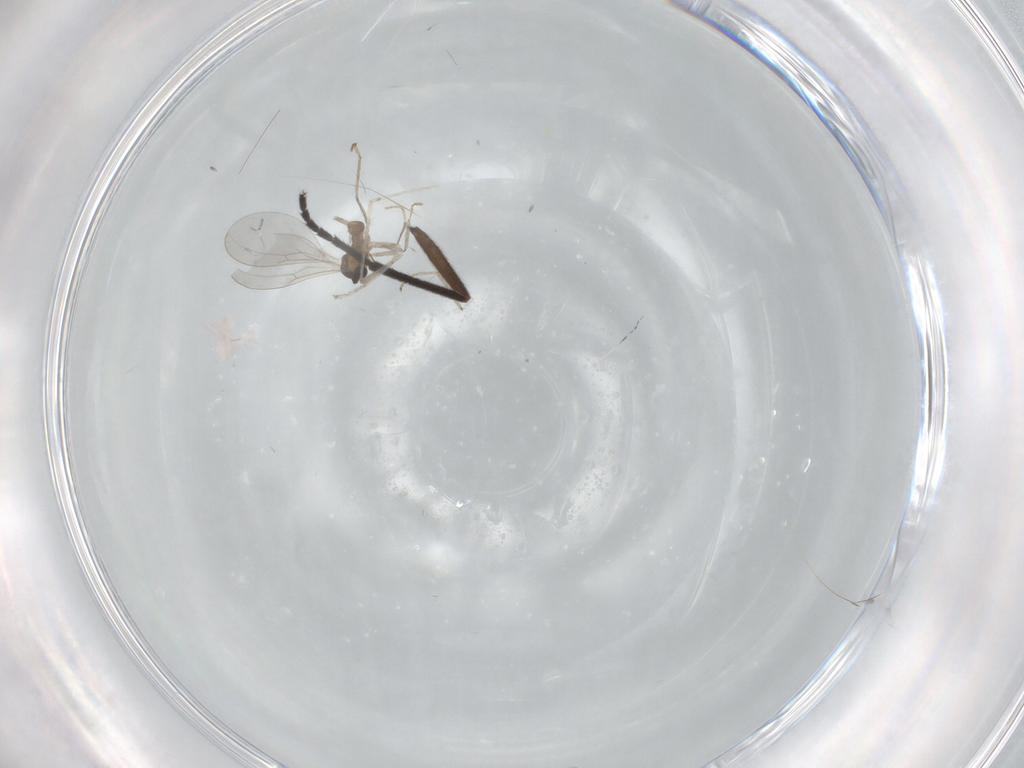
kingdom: Animalia
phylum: Arthropoda
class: Insecta
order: Diptera
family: Cecidomyiidae
